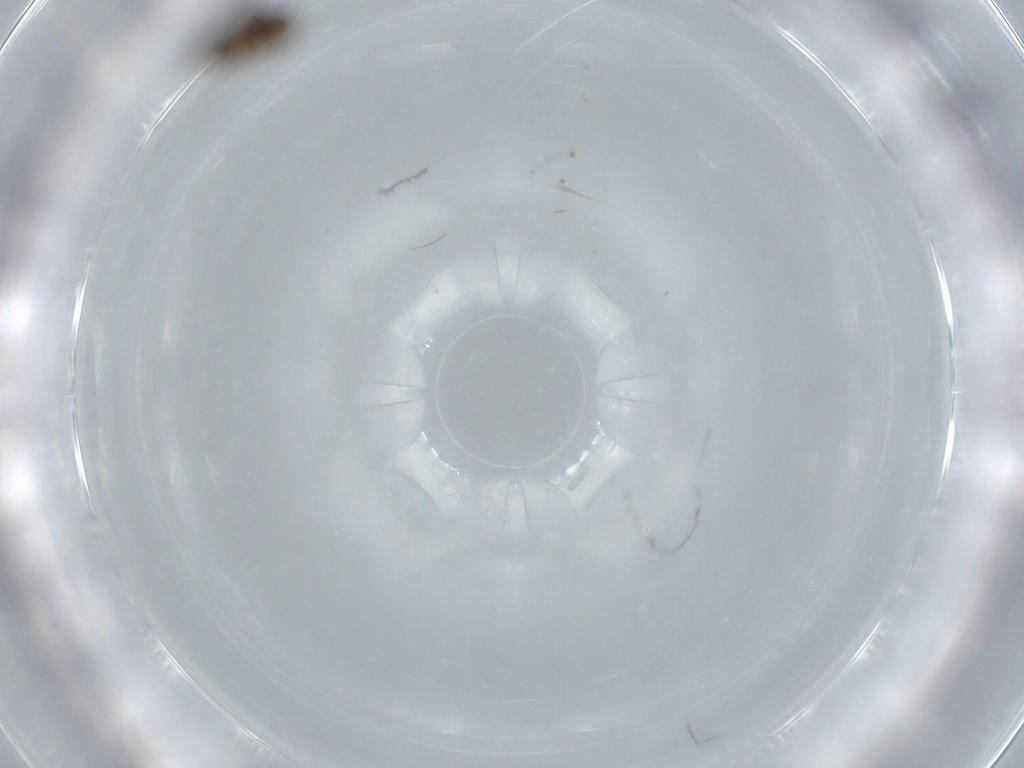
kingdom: Animalia
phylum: Arthropoda
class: Insecta
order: Hymenoptera
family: Platygastridae
